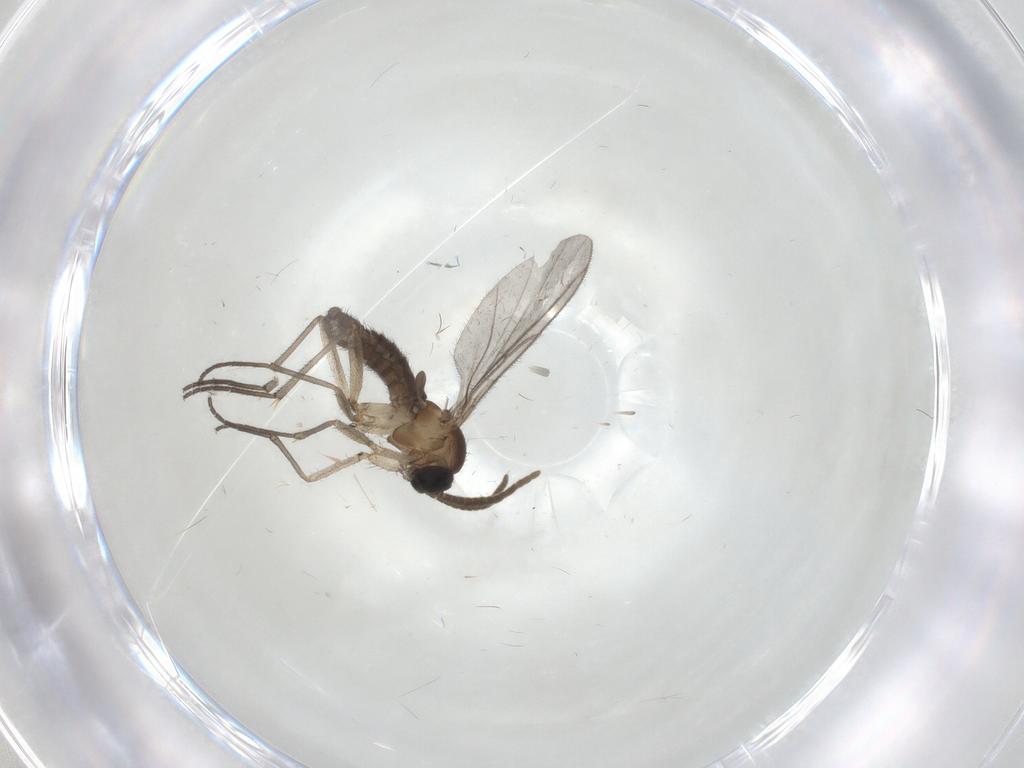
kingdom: Animalia
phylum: Arthropoda
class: Insecta
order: Diptera
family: Cecidomyiidae
